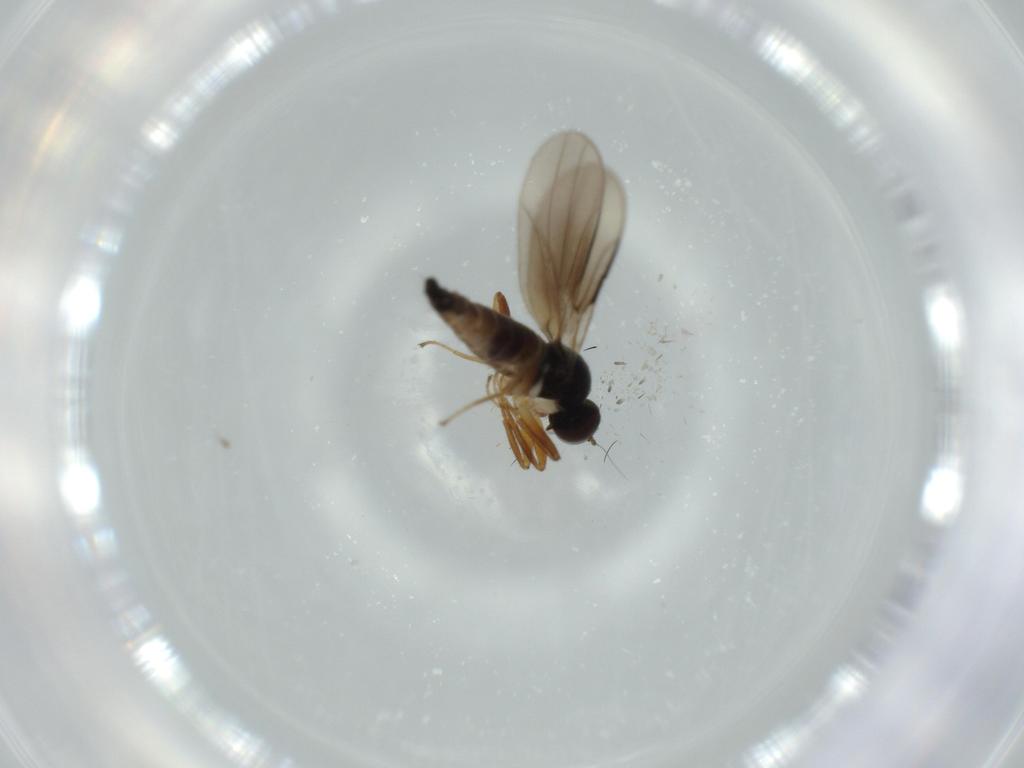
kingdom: Animalia
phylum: Arthropoda
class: Insecta
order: Diptera
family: Hybotidae
